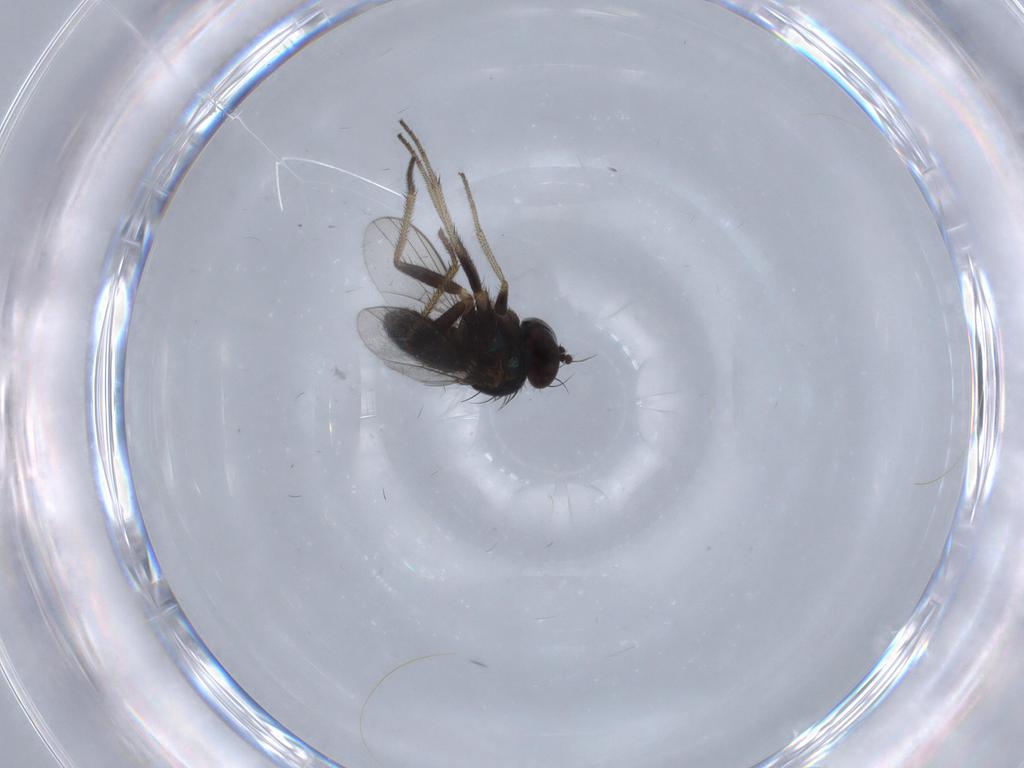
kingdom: Animalia
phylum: Arthropoda
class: Insecta
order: Diptera
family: Dolichopodidae
